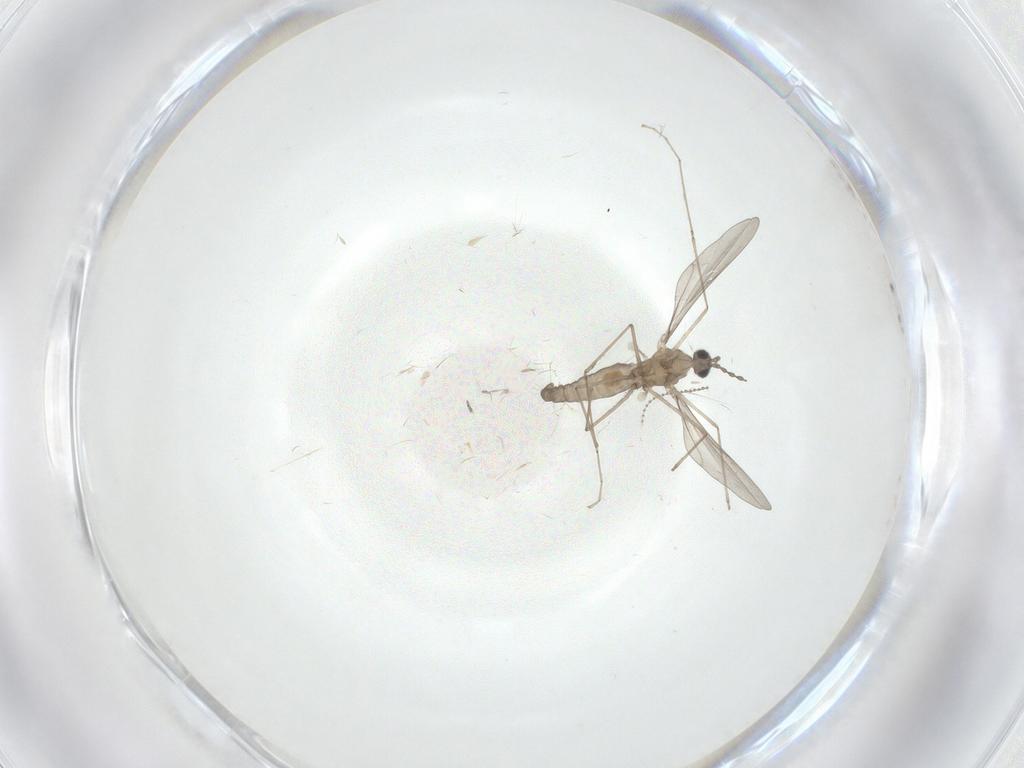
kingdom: Animalia
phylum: Arthropoda
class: Insecta
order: Diptera
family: Cecidomyiidae
